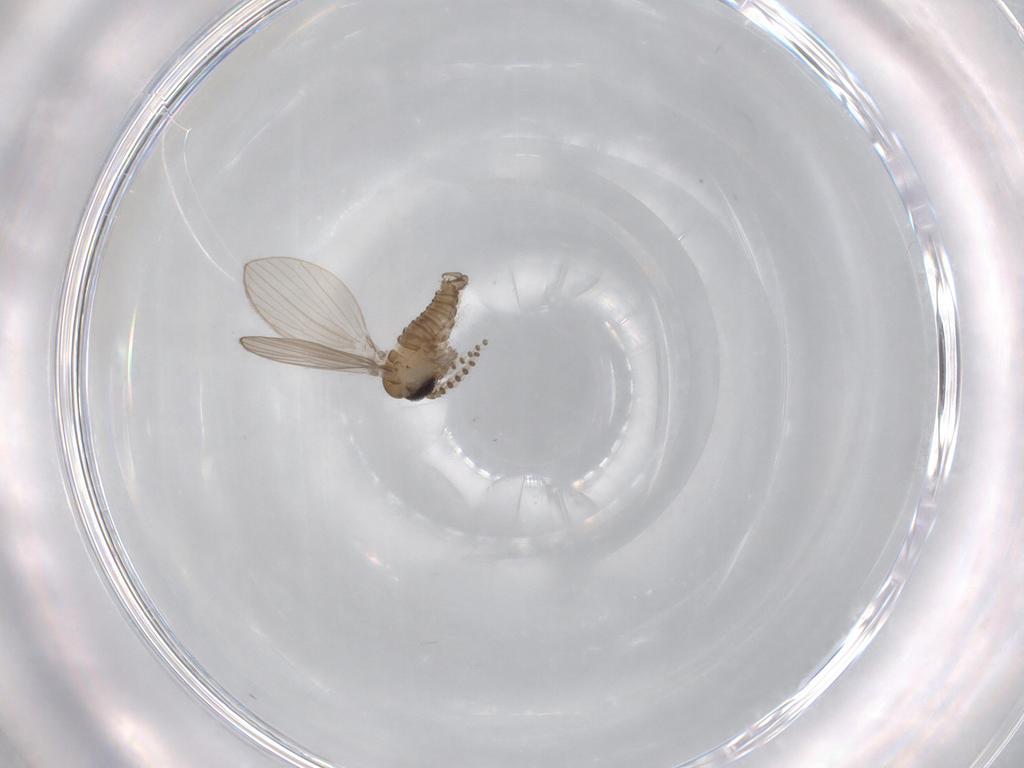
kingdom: Animalia
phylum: Arthropoda
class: Insecta
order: Diptera
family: Psychodidae
